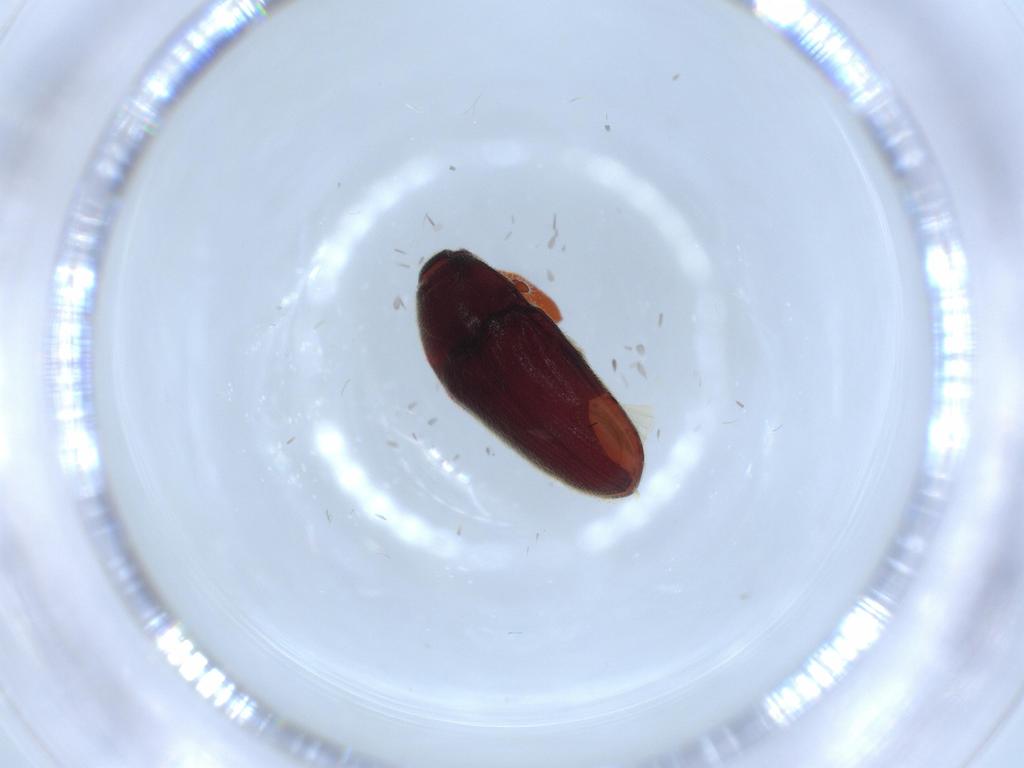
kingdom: Animalia
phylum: Arthropoda
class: Insecta
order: Coleoptera
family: Throscidae
